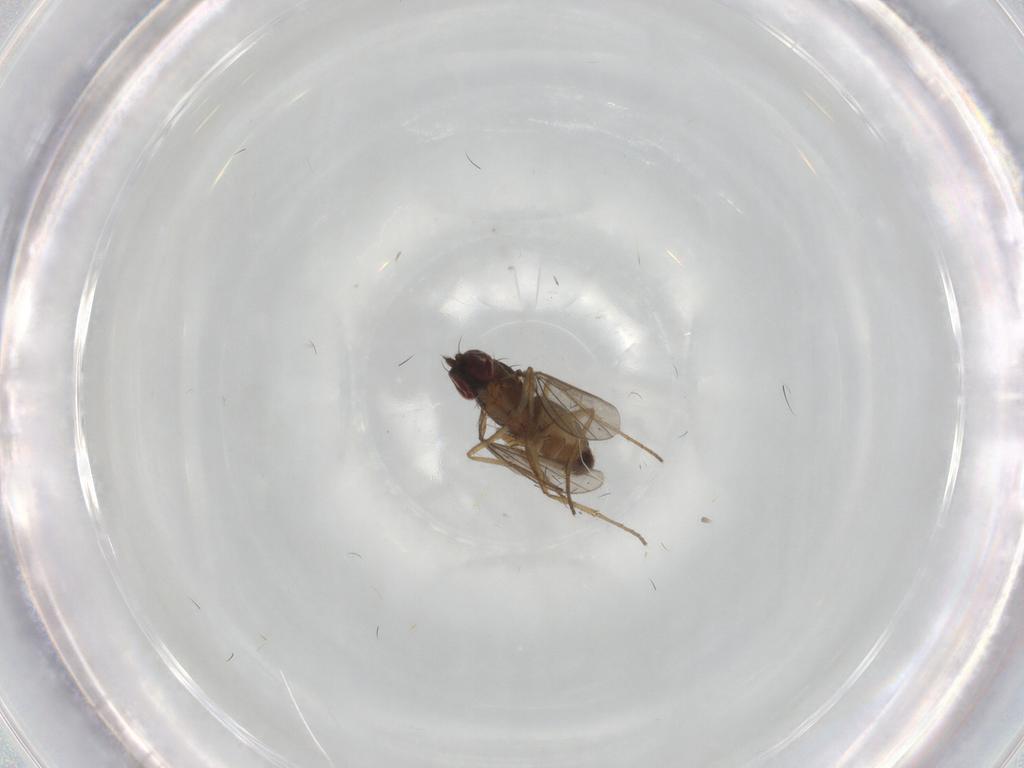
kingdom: Animalia
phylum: Arthropoda
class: Insecta
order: Diptera
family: Dolichopodidae
